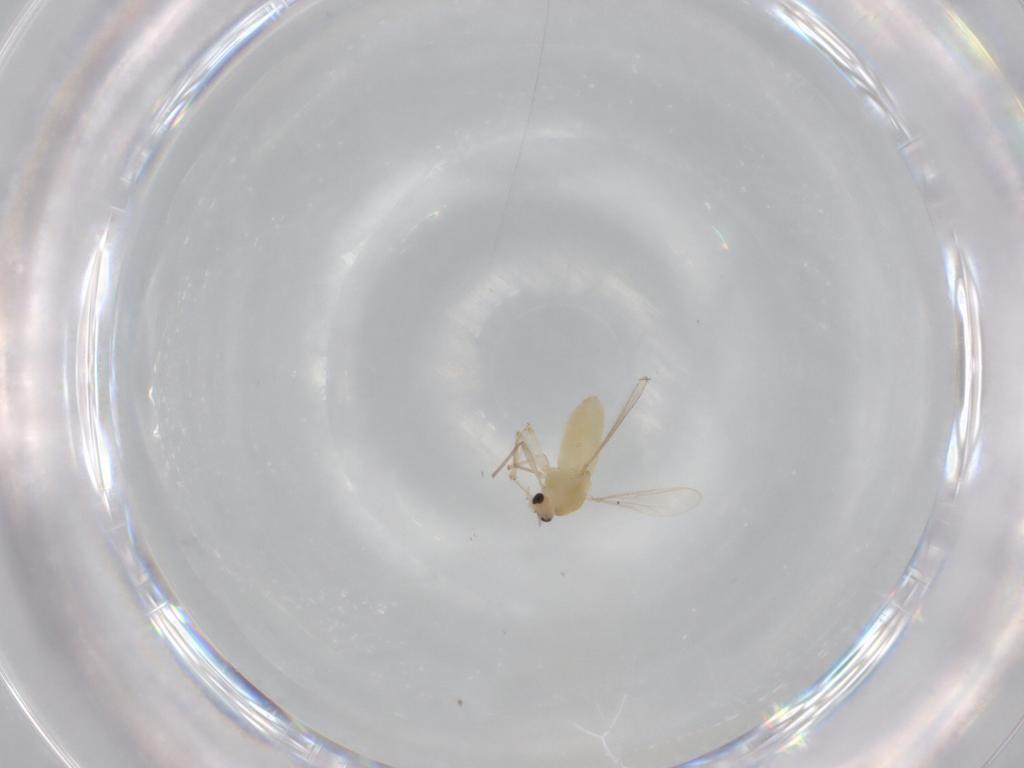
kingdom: Animalia
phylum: Arthropoda
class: Insecta
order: Diptera
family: Chironomidae
